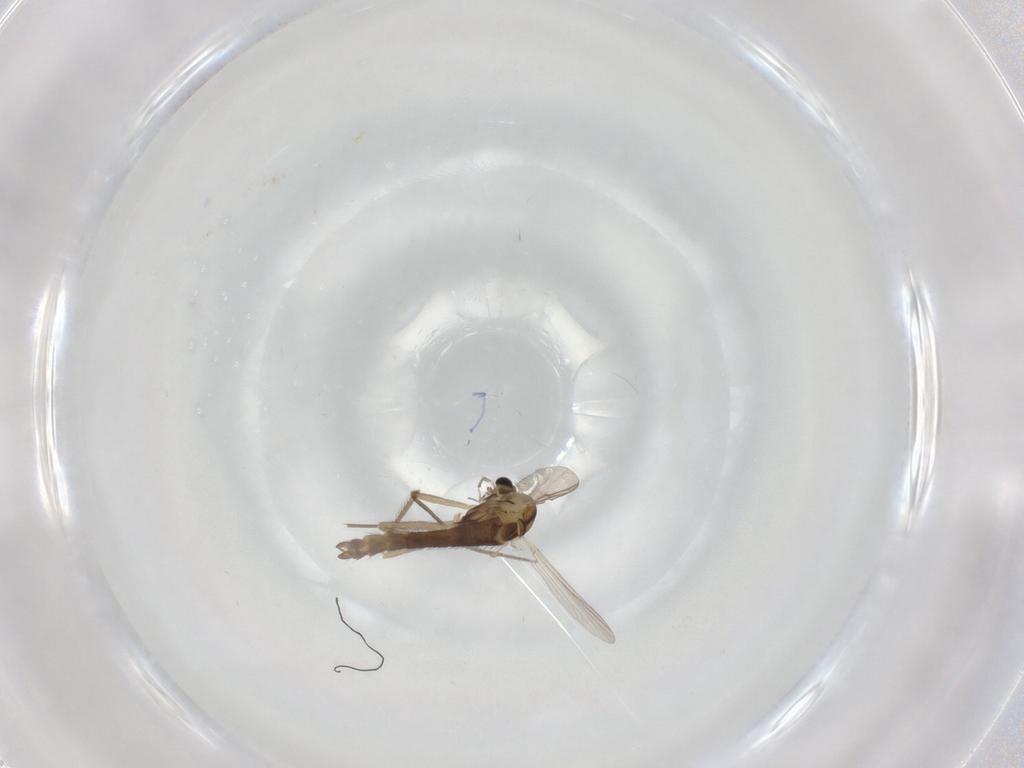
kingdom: Animalia
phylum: Arthropoda
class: Insecta
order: Diptera
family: Chironomidae
